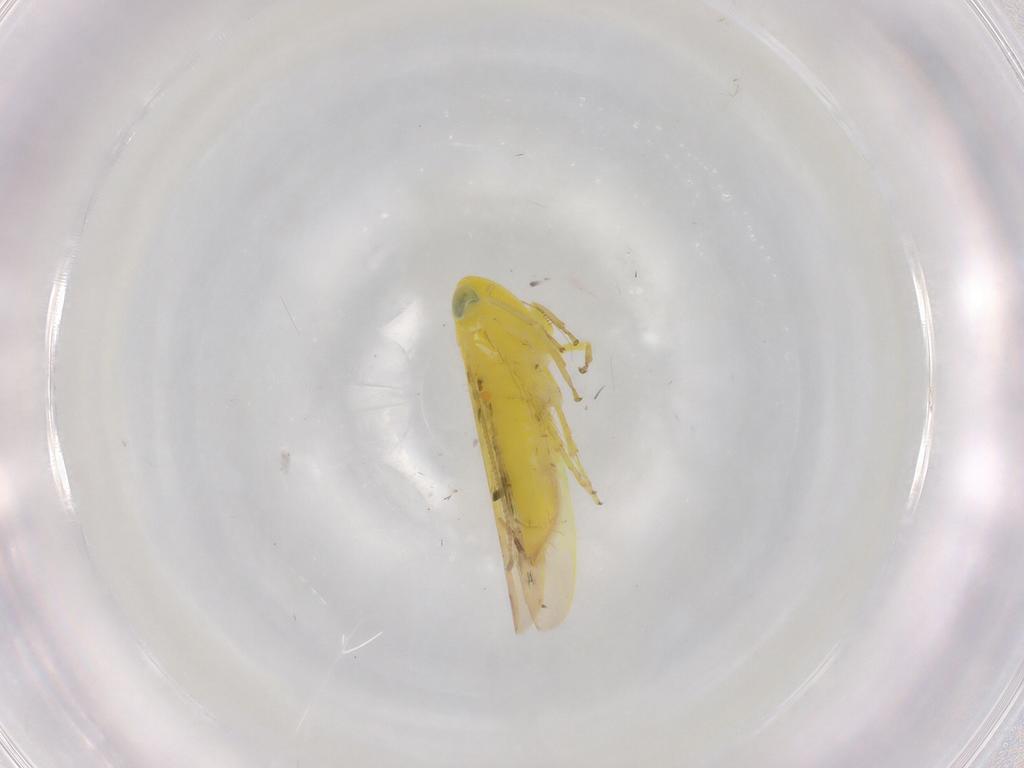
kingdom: Animalia
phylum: Arthropoda
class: Insecta
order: Hemiptera
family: Aphididae
